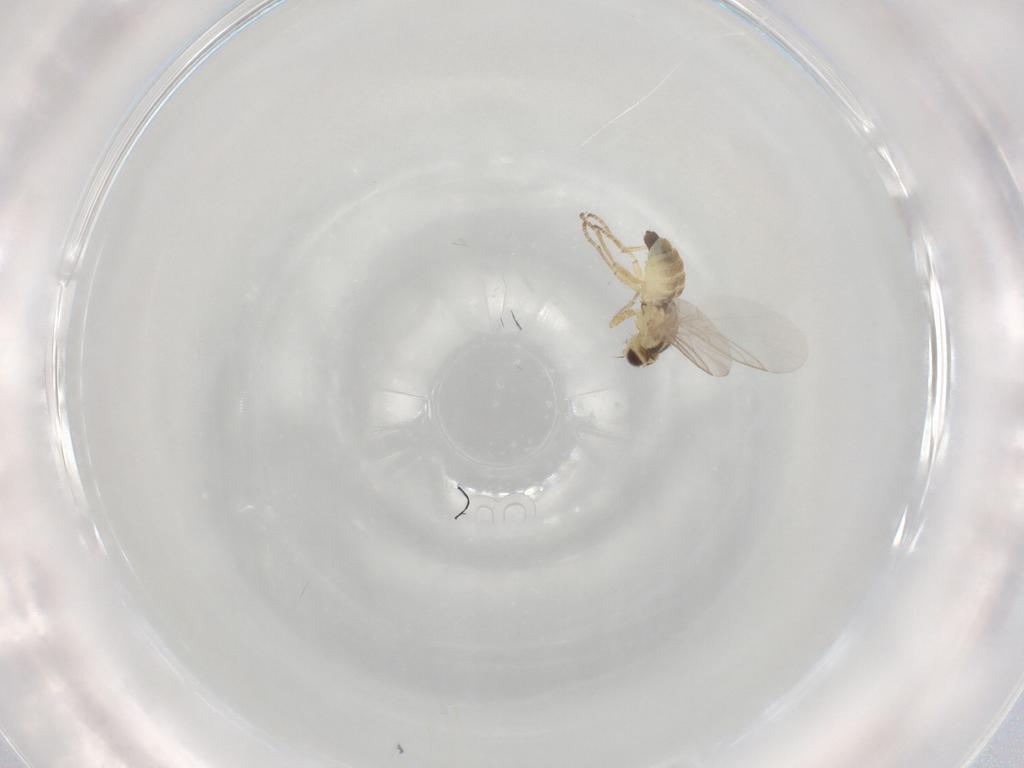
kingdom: Animalia
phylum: Arthropoda
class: Insecta
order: Diptera
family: Agromyzidae
